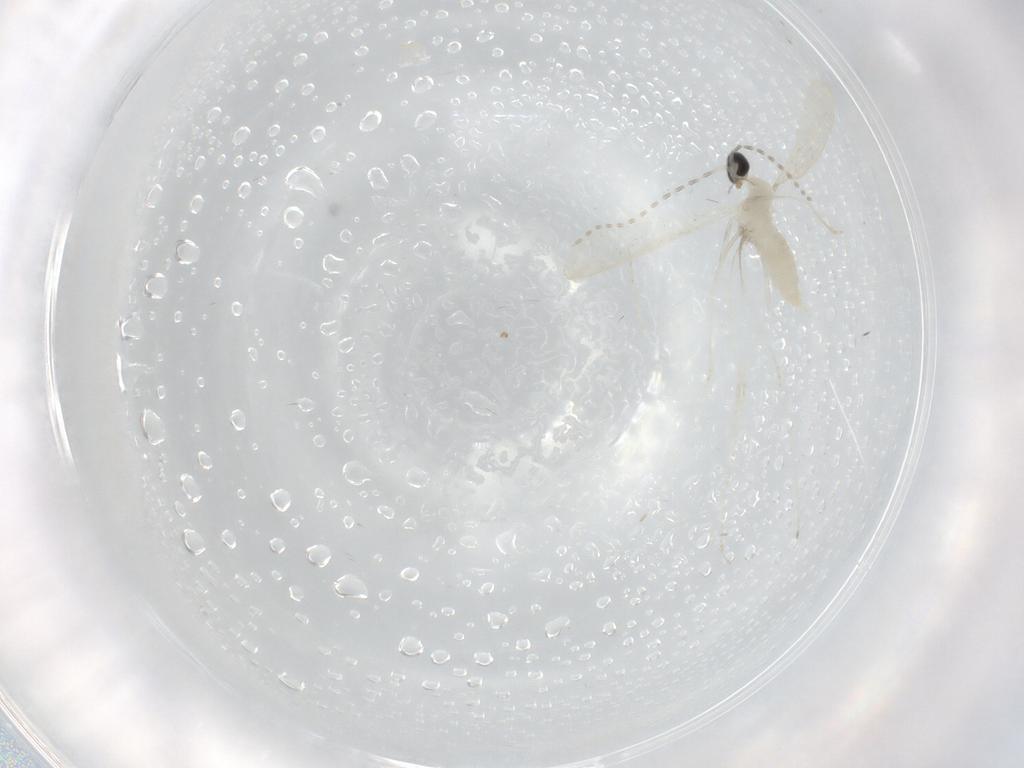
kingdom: Animalia
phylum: Arthropoda
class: Insecta
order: Diptera
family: Cecidomyiidae
